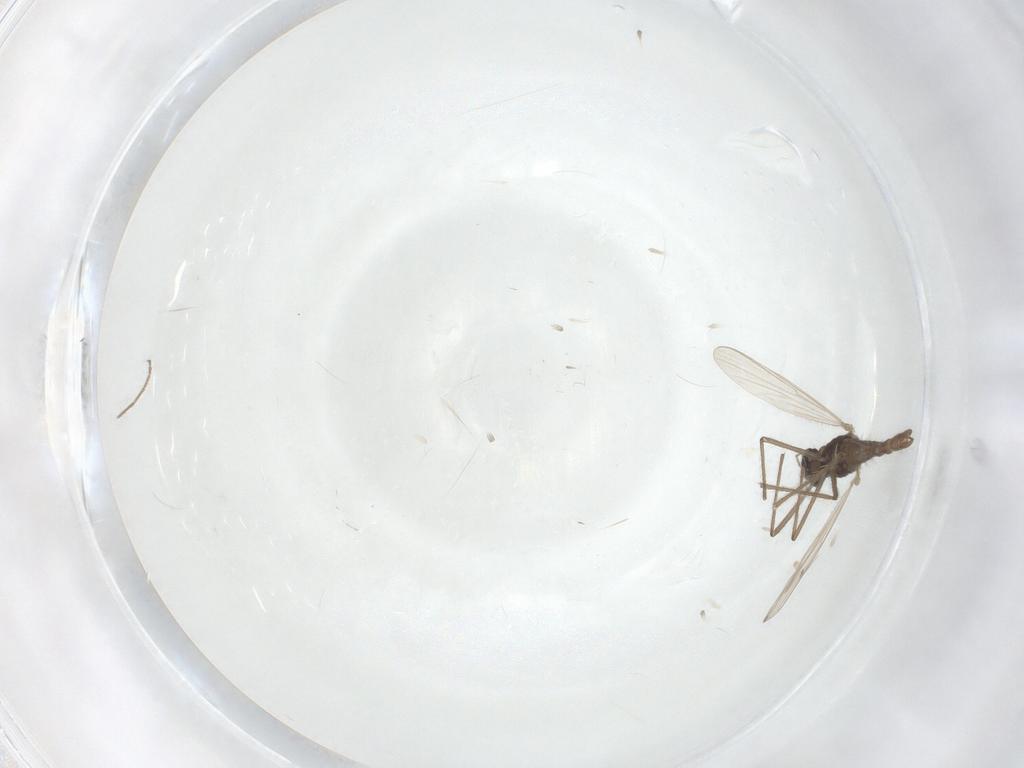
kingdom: Animalia
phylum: Arthropoda
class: Insecta
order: Diptera
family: Chironomidae
